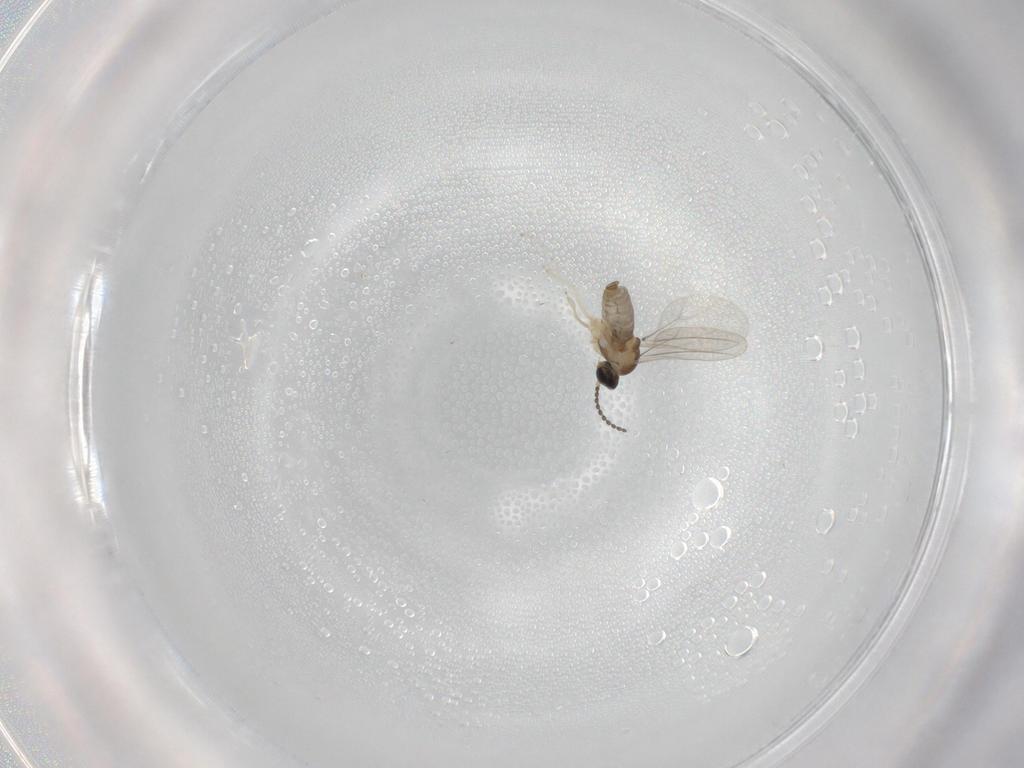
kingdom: Animalia
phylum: Arthropoda
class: Insecta
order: Diptera
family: Cecidomyiidae
